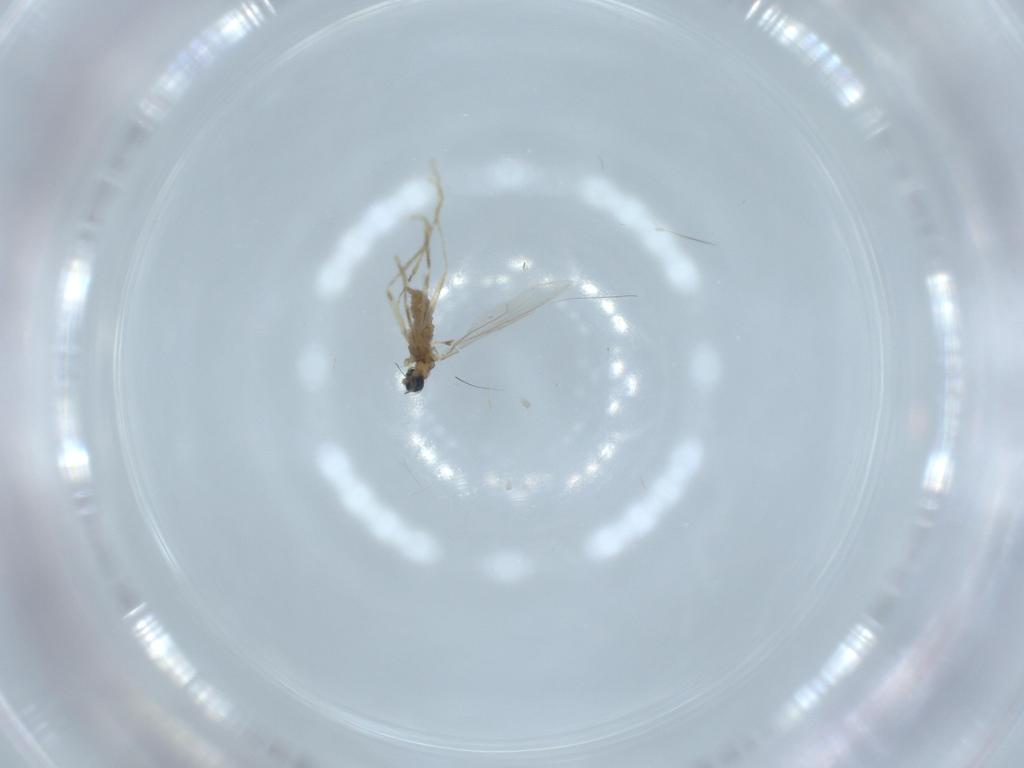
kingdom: Animalia
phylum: Arthropoda
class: Insecta
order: Diptera
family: Cecidomyiidae
